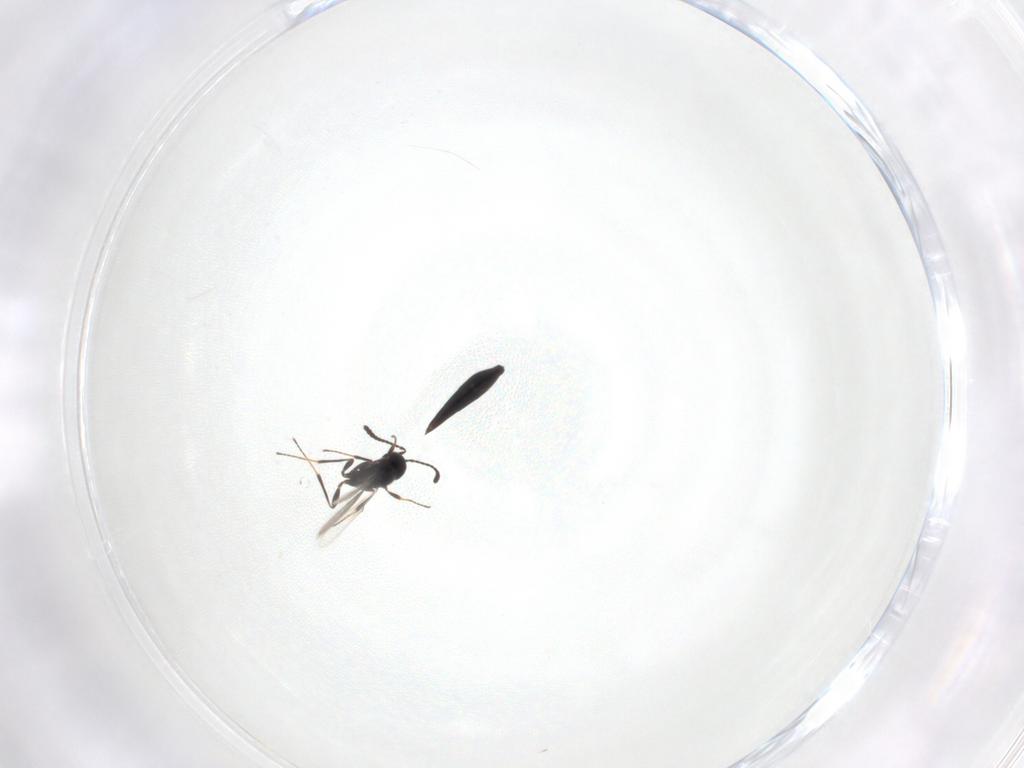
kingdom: Animalia
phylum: Arthropoda
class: Insecta
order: Hymenoptera
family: Scelionidae
